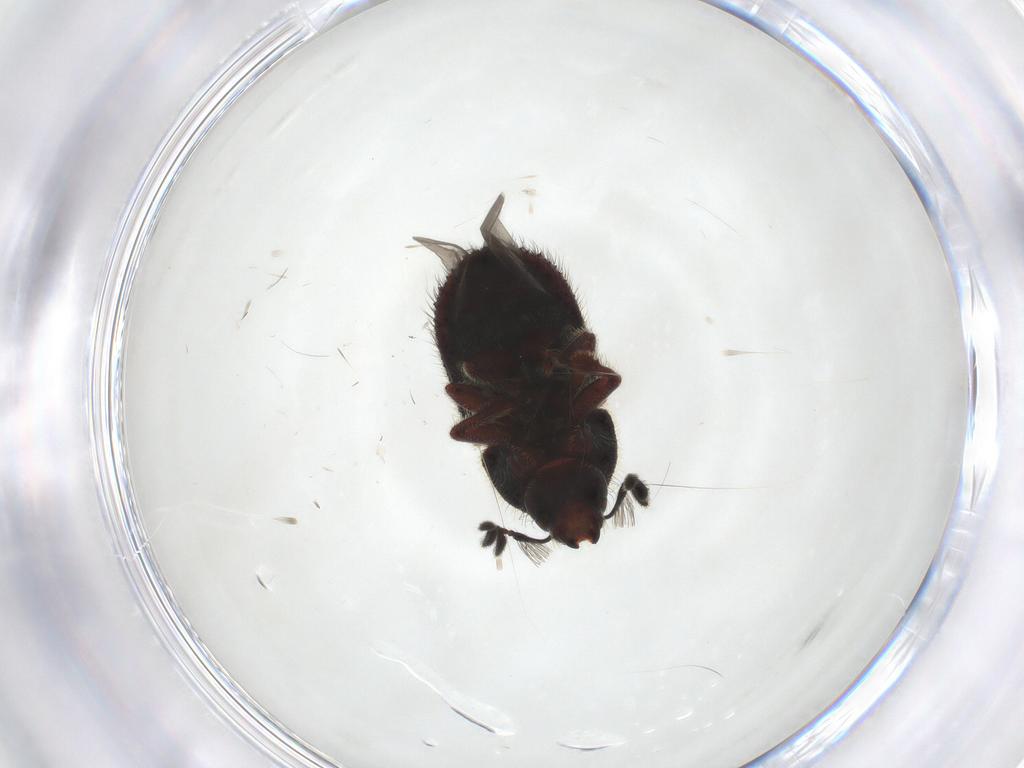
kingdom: Animalia
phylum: Arthropoda
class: Insecta
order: Coleoptera
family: Curculionidae
